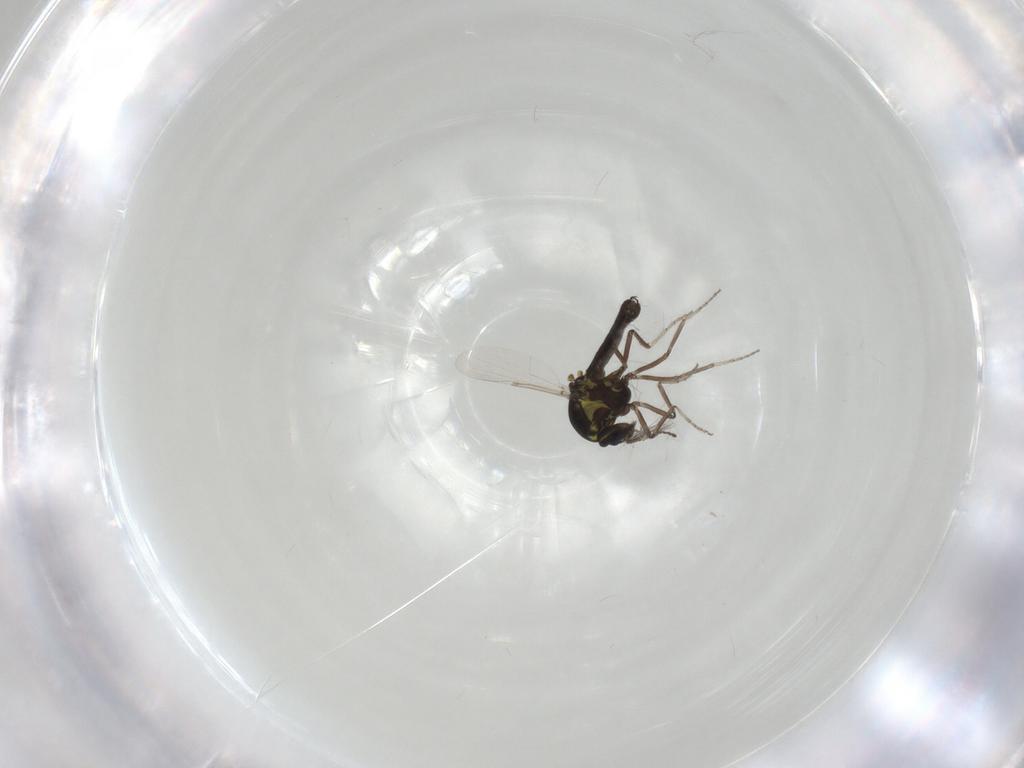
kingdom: Animalia
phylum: Arthropoda
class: Insecta
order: Diptera
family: Ceratopogonidae
